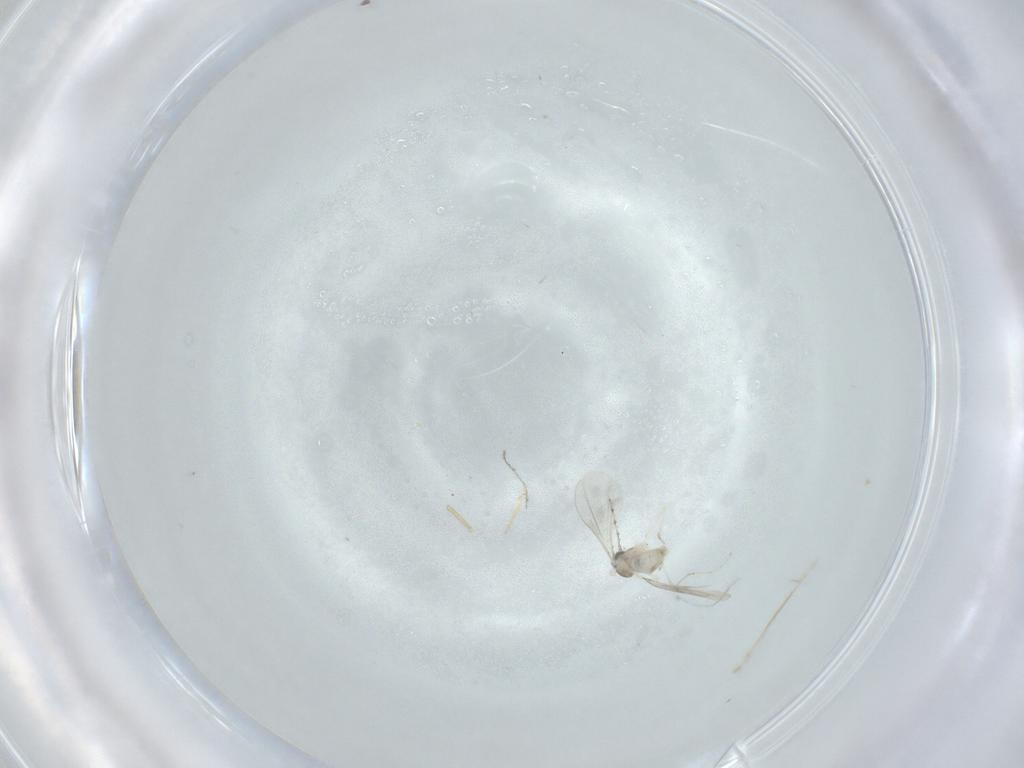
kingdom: Animalia
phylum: Arthropoda
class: Insecta
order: Diptera
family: Cecidomyiidae
